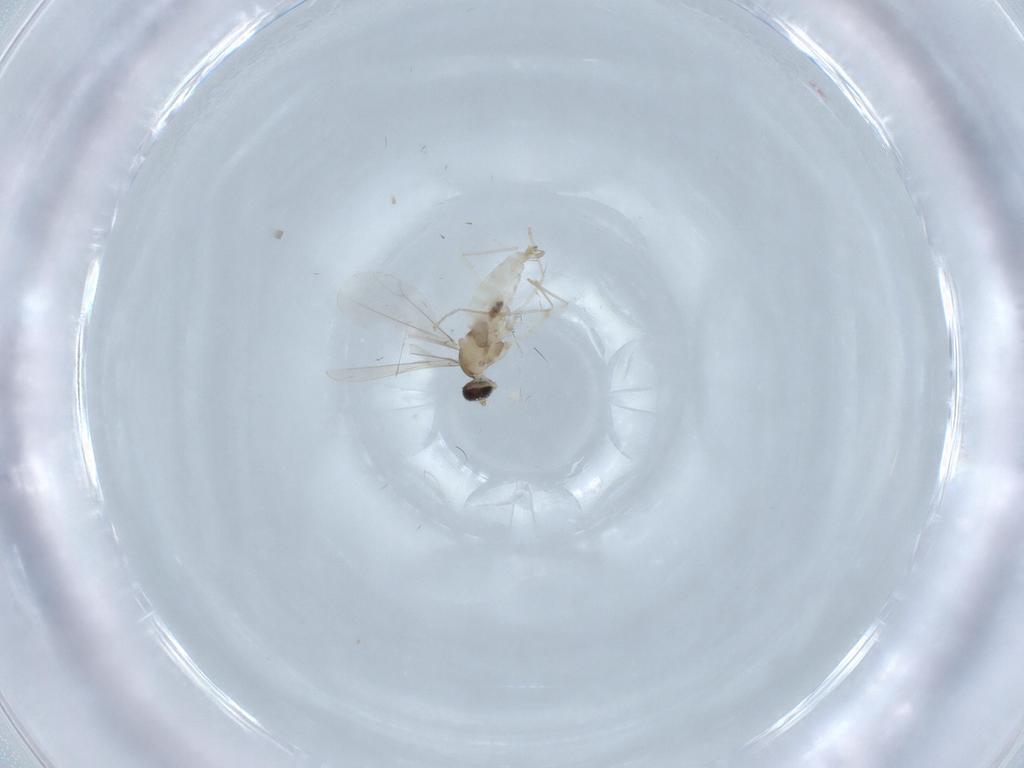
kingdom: Animalia
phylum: Arthropoda
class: Insecta
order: Diptera
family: Cecidomyiidae
